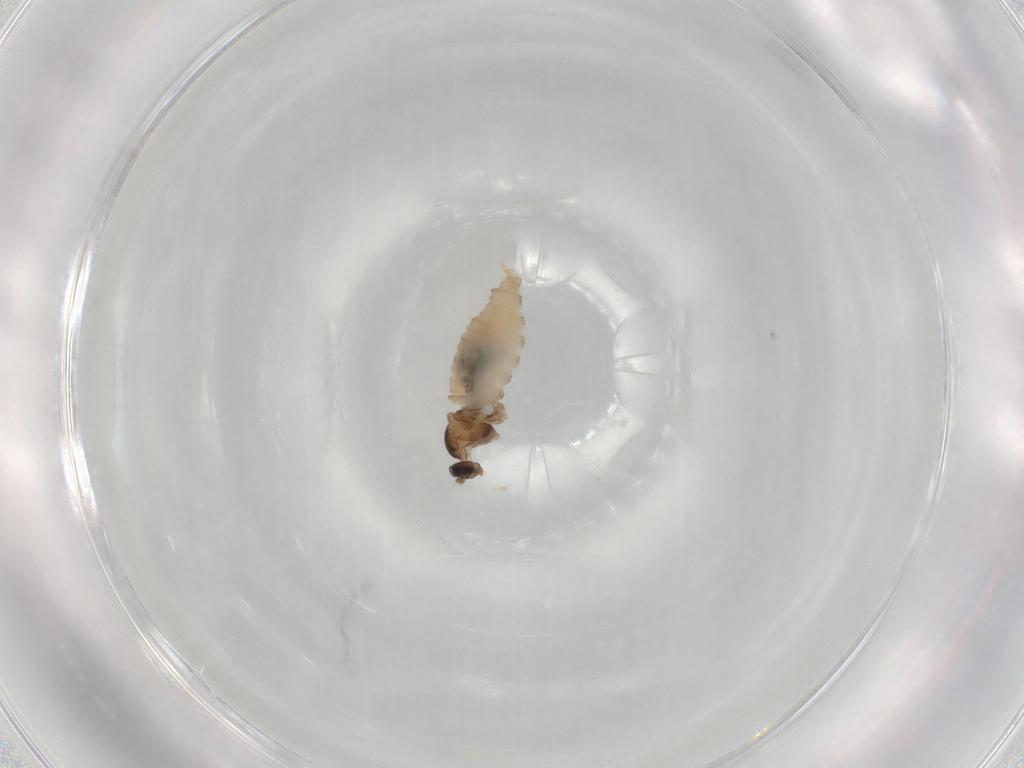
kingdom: Animalia
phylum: Arthropoda
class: Insecta
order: Diptera
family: Cecidomyiidae
